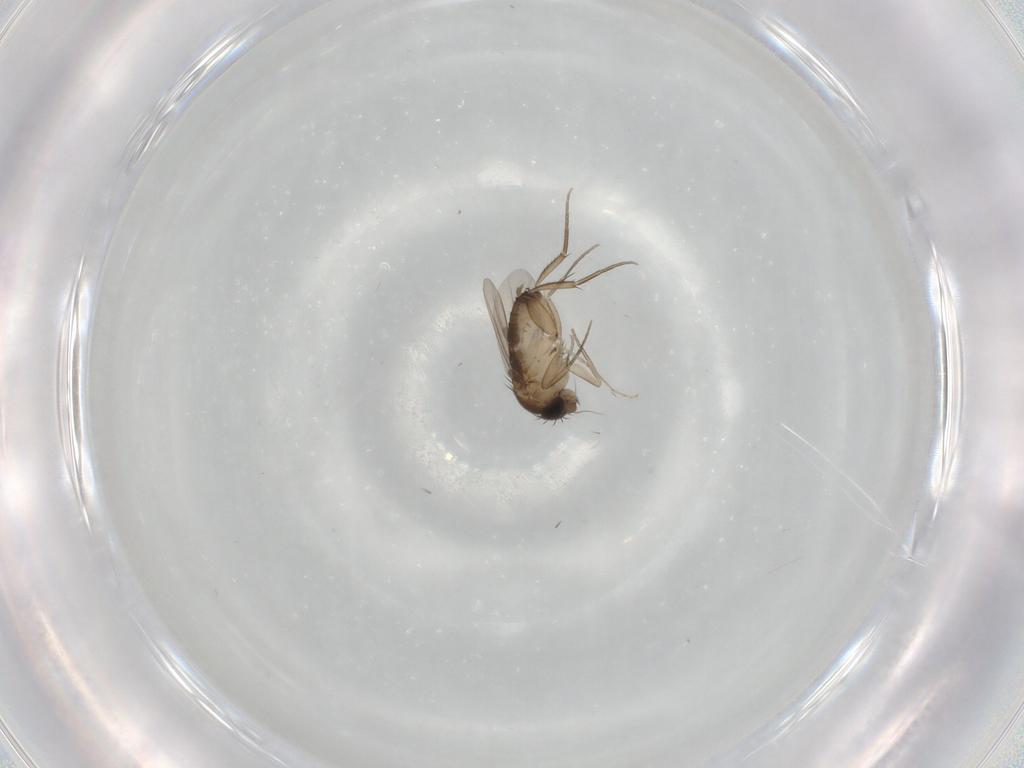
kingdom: Animalia
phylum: Arthropoda
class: Insecta
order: Diptera
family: Phoridae
